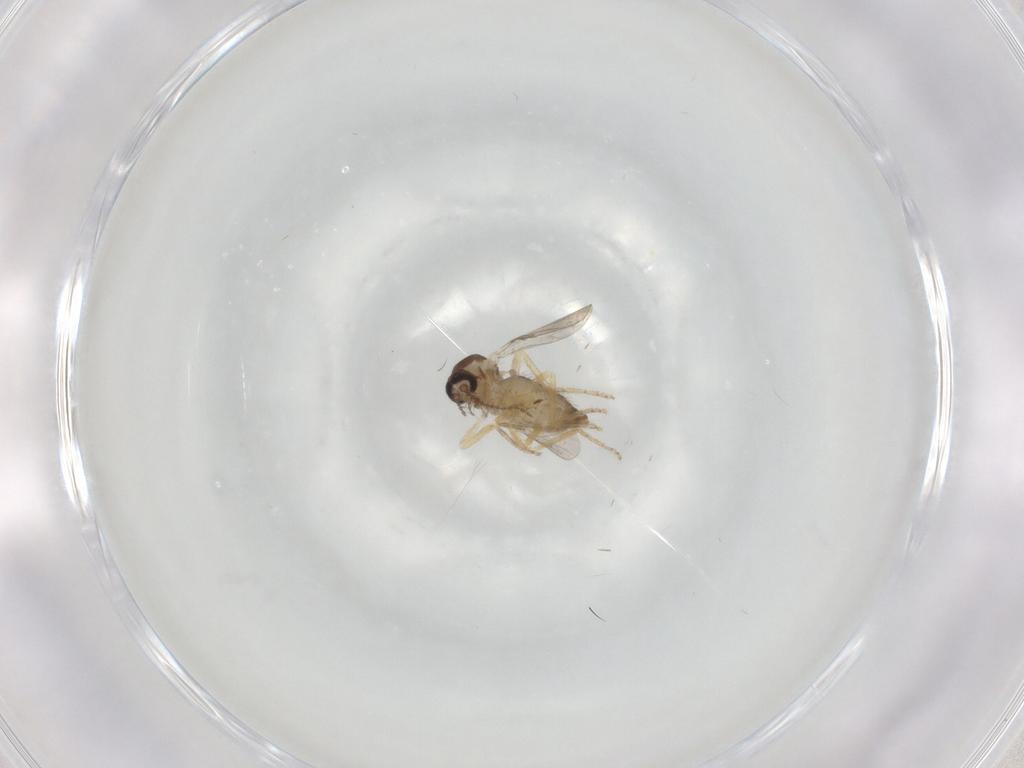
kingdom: Animalia
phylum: Arthropoda
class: Insecta
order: Diptera
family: Ceratopogonidae
